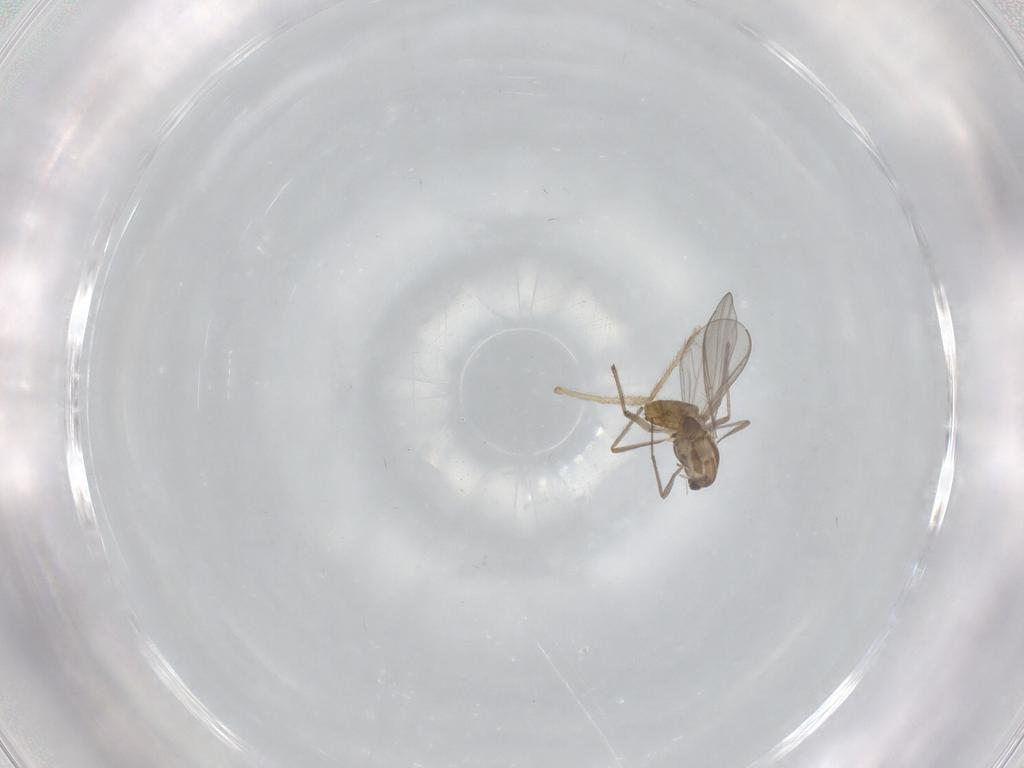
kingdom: Animalia
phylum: Arthropoda
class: Insecta
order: Diptera
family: Chironomidae
